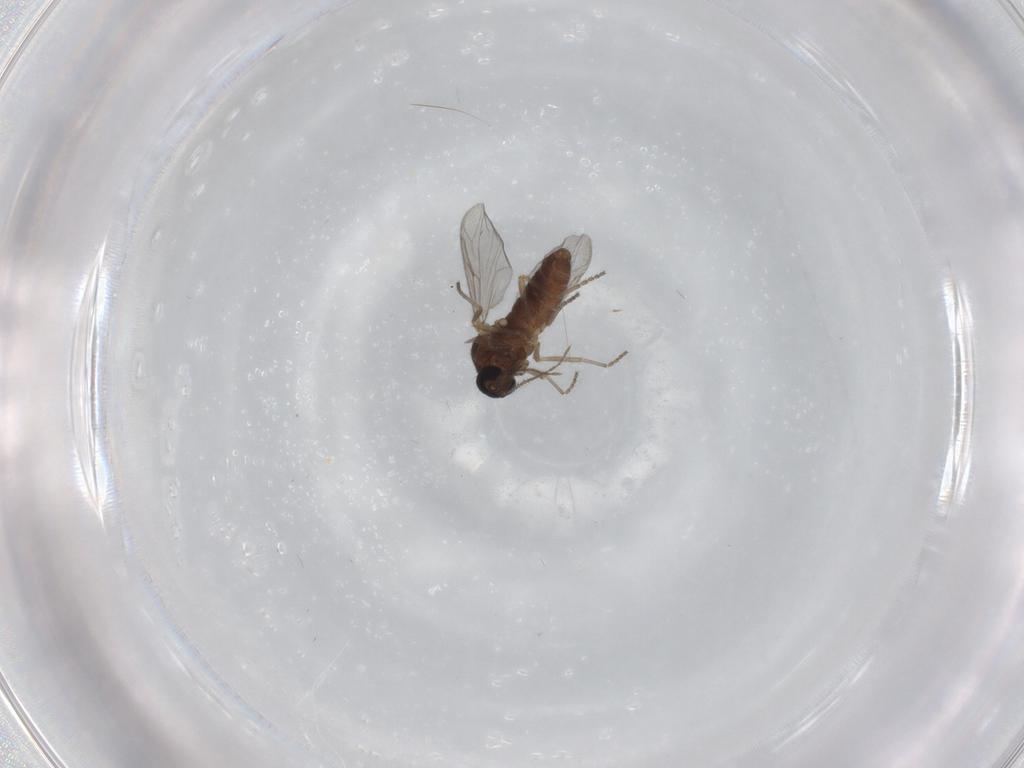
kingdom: Animalia
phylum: Arthropoda
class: Insecta
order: Diptera
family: Ceratopogonidae
